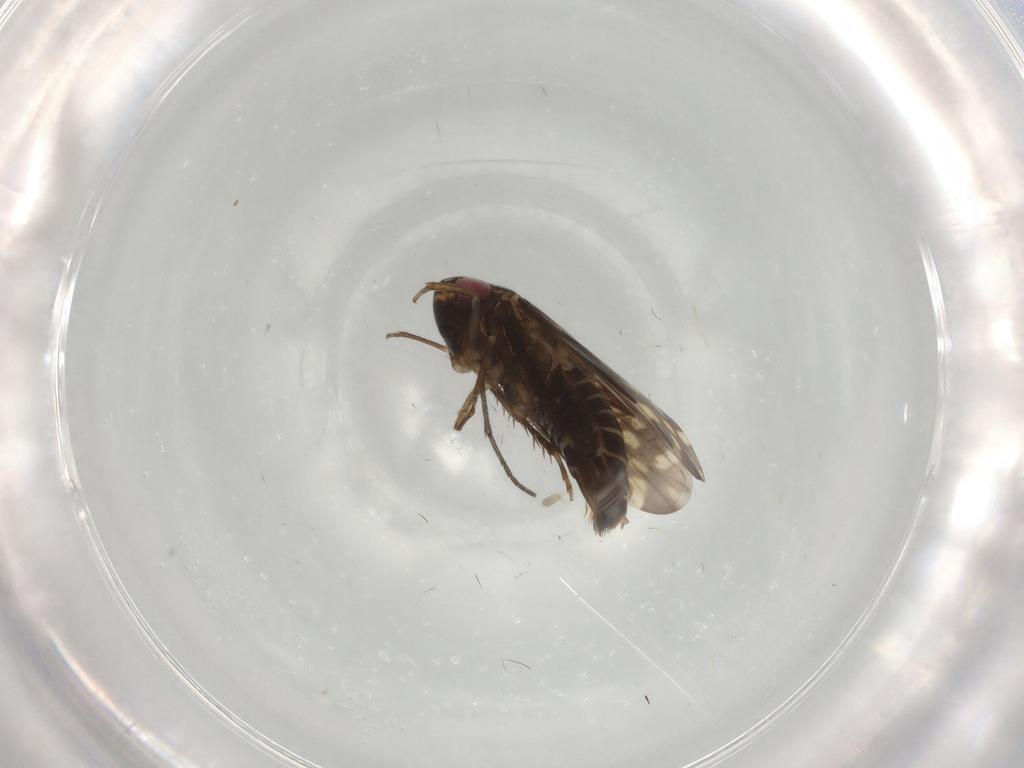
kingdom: Animalia
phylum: Arthropoda
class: Insecta
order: Hemiptera
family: Cicadellidae
